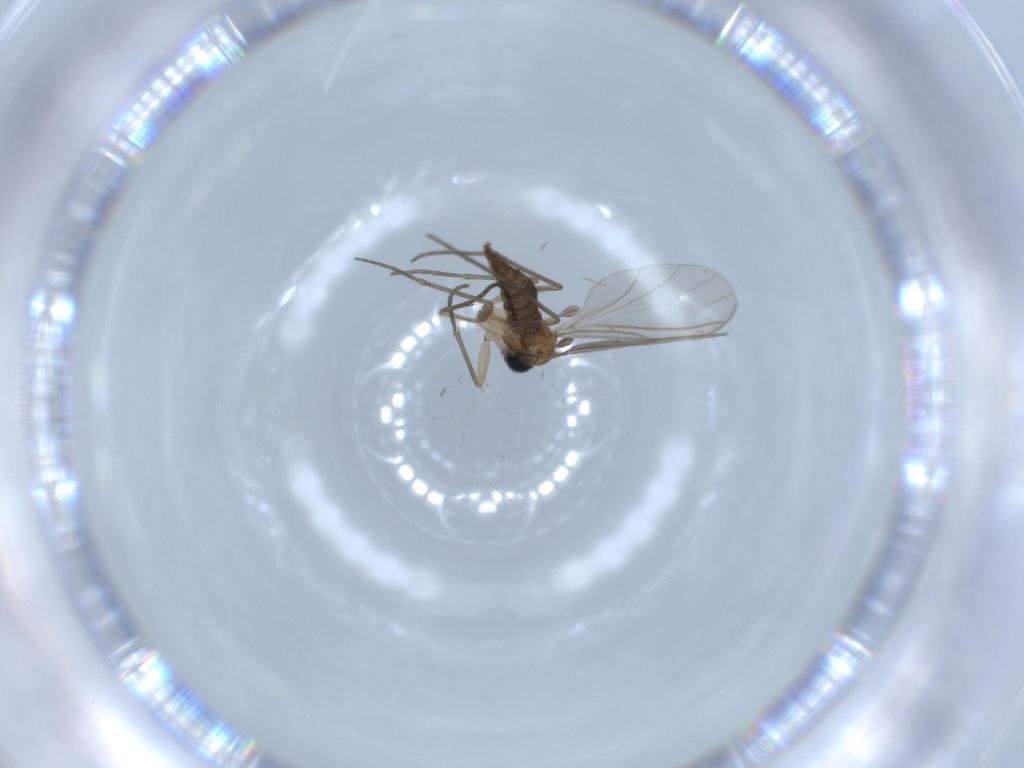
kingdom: Animalia
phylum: Arthropoda
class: Insecta
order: Diptera
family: Sciaridae
